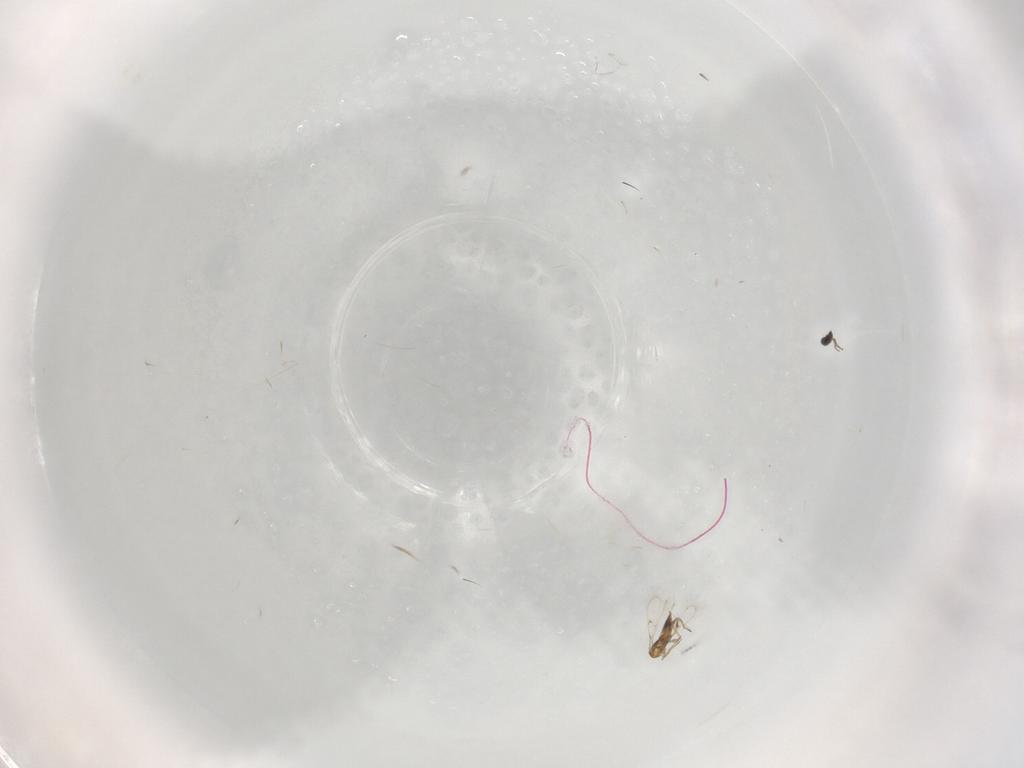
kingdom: Animalia
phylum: Arthropoda
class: Insecta
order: Hymenoptera
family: Trichogrammatidae
